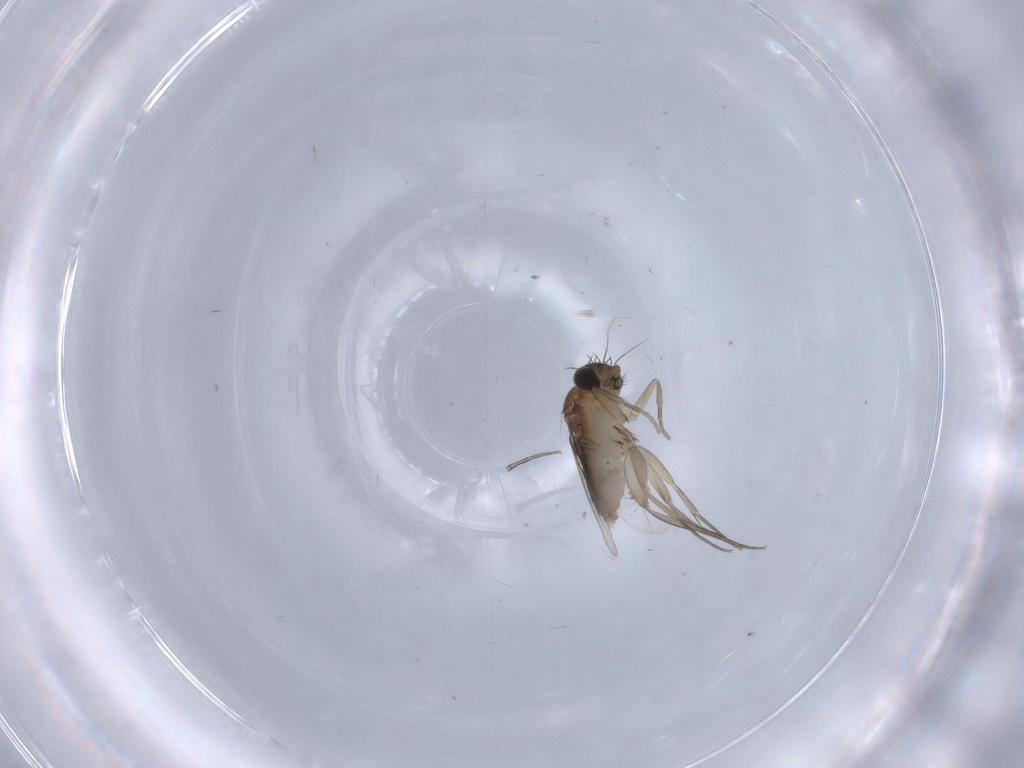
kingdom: Animalia
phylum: Arthropoda
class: Insecta
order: Diptera
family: Phoridae
